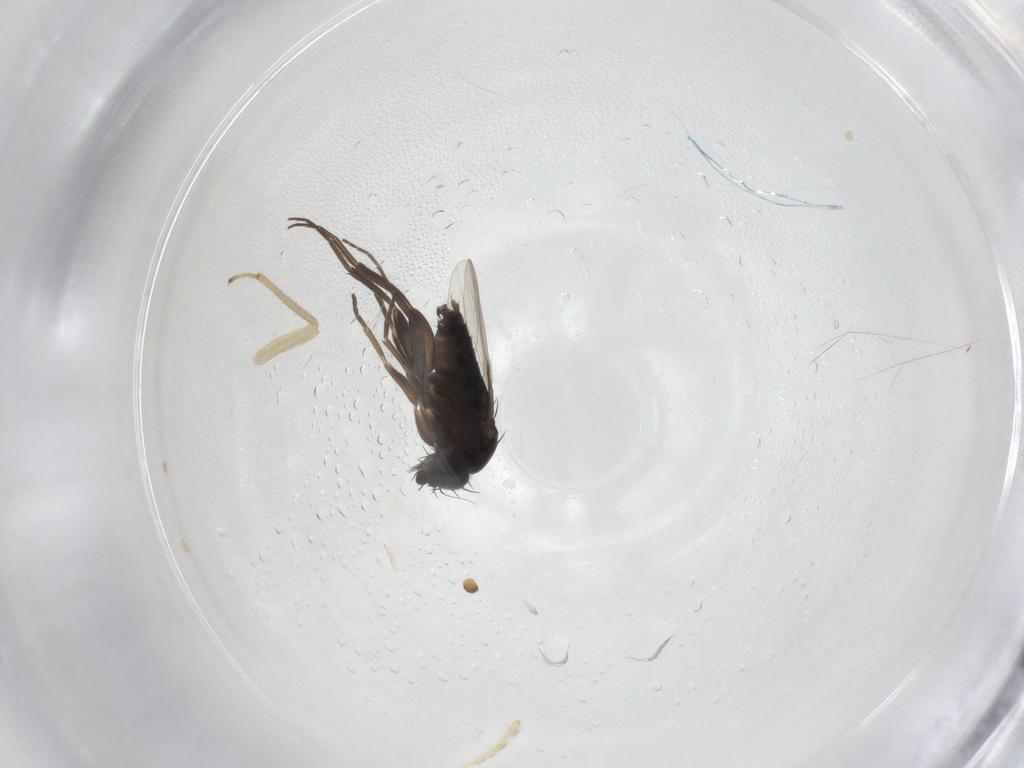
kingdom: Animalia
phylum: Arthropoda
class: Insecta
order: Diptera
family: Phoridae
